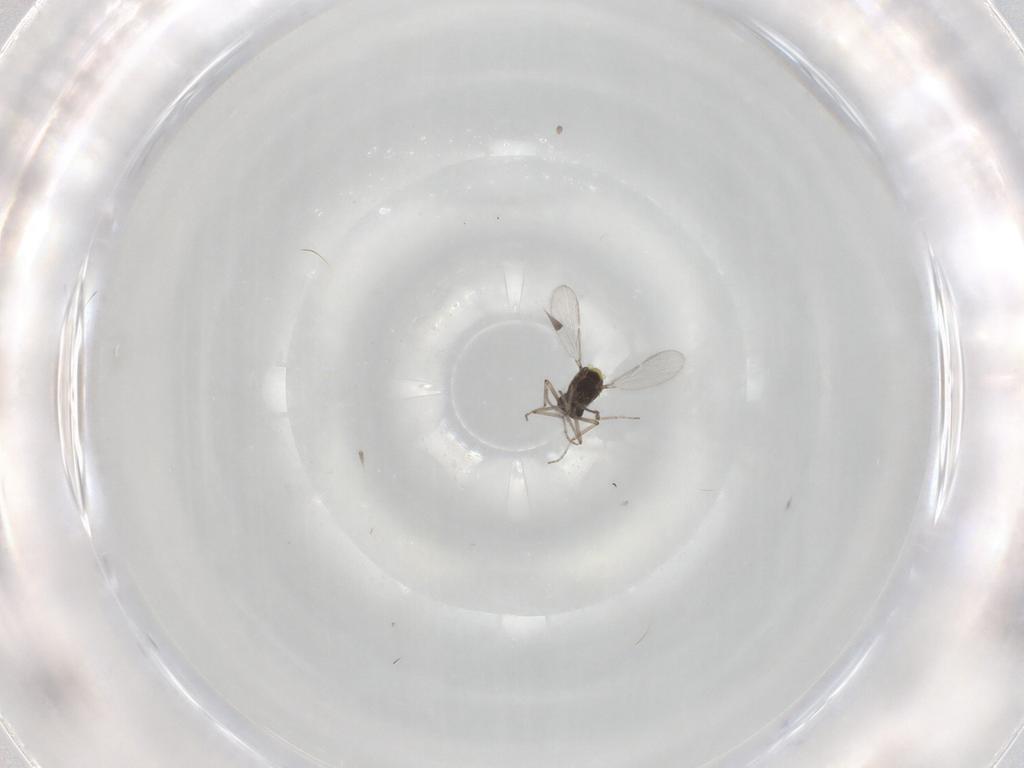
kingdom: Animalia
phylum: Arthropoda
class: Insecta
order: Diptera
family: Ceratopogonidae
